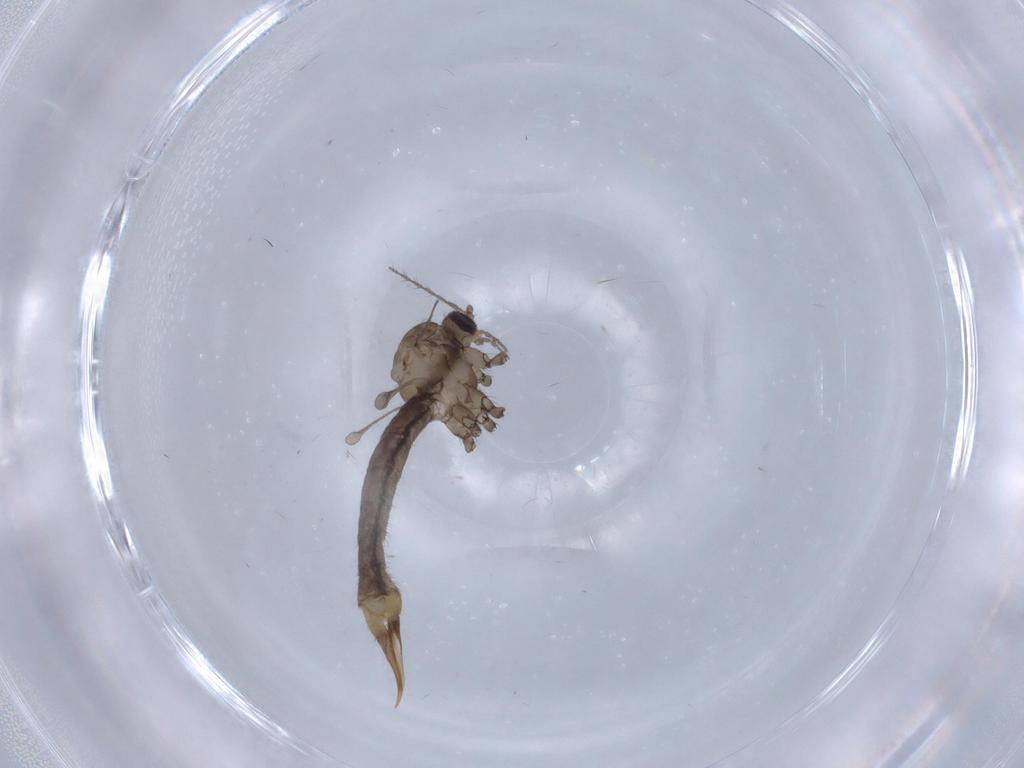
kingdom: Animalia
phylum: Arthropoda
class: Insecta
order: Diptera
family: Limoniidae
